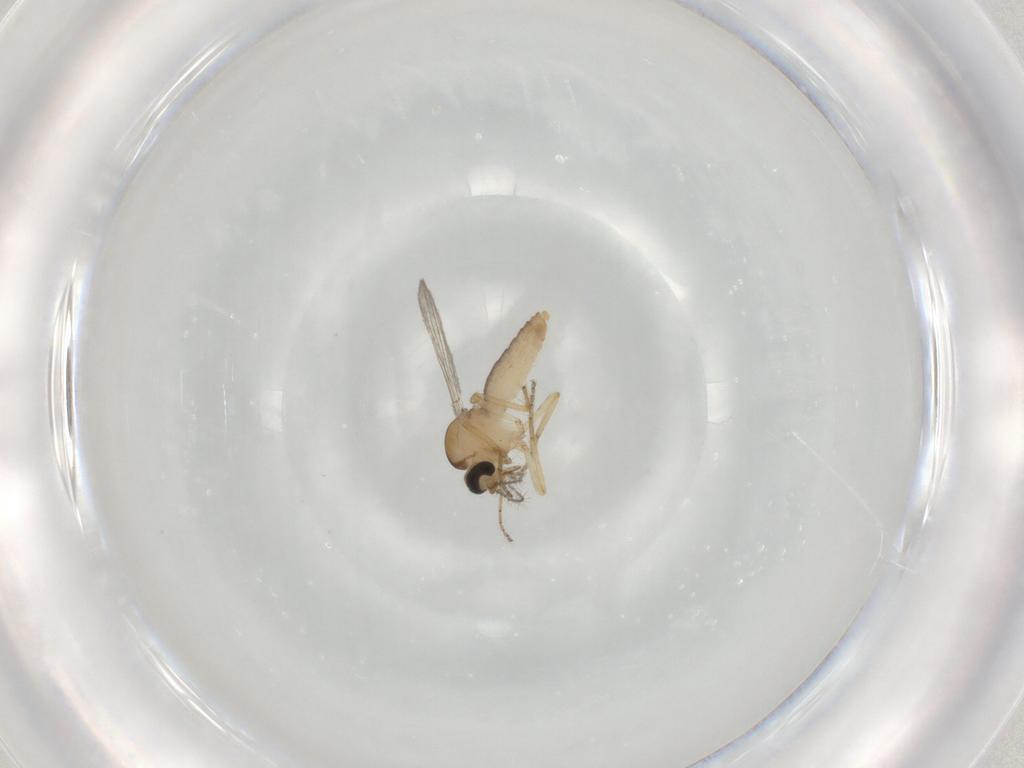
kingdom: Animalia
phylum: Arthropoda
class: Insecta
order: Diptera
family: Ceratopogonidae
